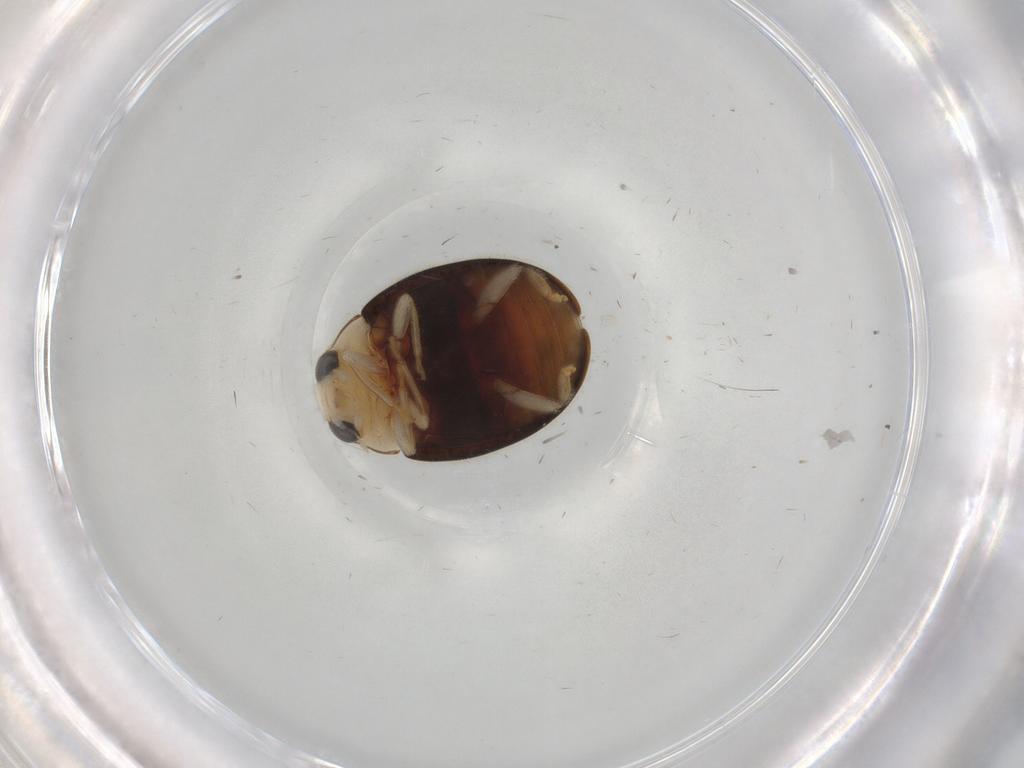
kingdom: Animalia
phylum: Arthropoda
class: Insecta
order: Coleoptera
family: Coccinellidae
